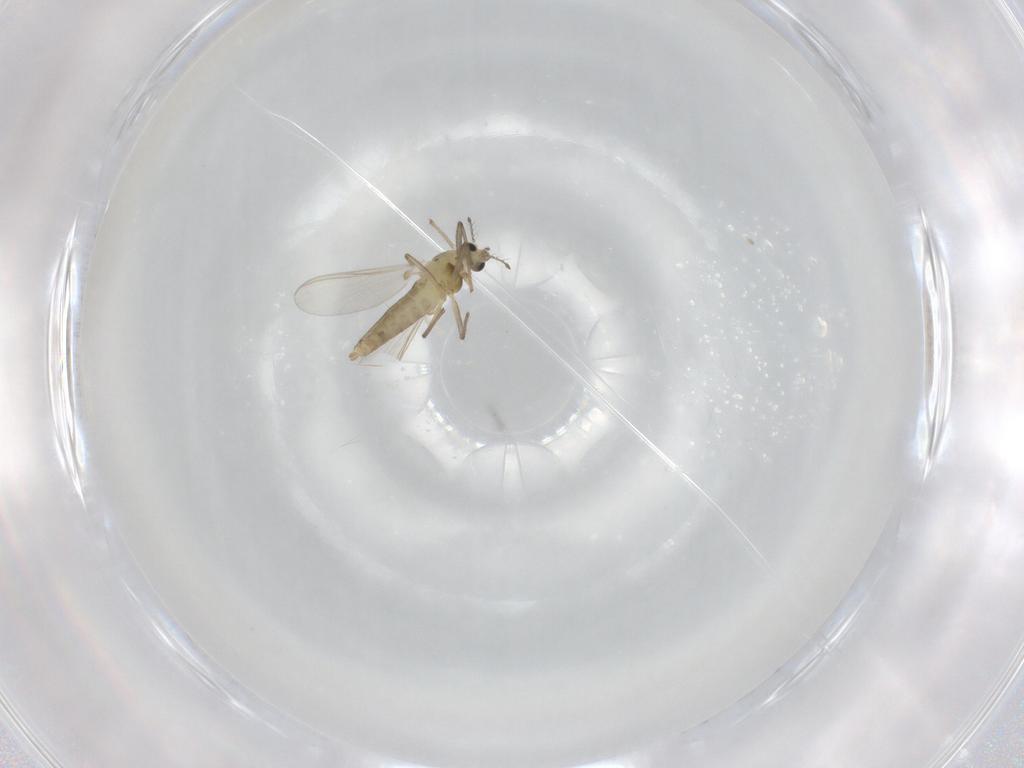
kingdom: Animalia
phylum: Arthropoda
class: Insecta
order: Diptera
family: Chironomidae
